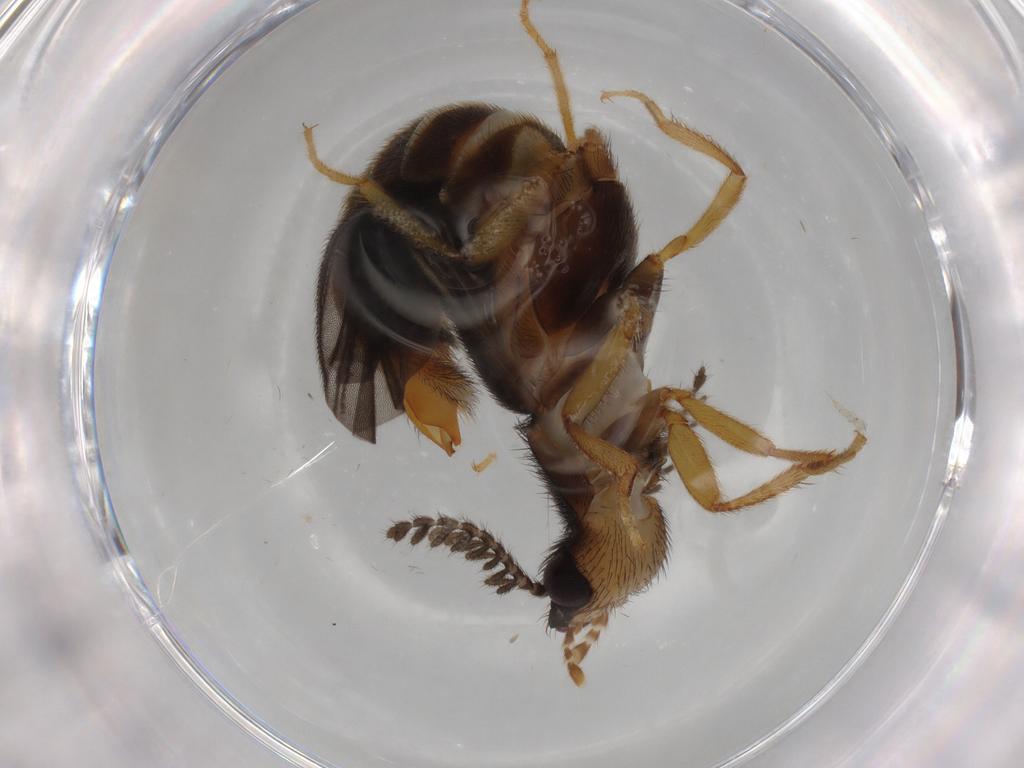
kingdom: Animalia
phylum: Arthropoda
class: Insecta
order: Coleoptera
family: Phengodidae
